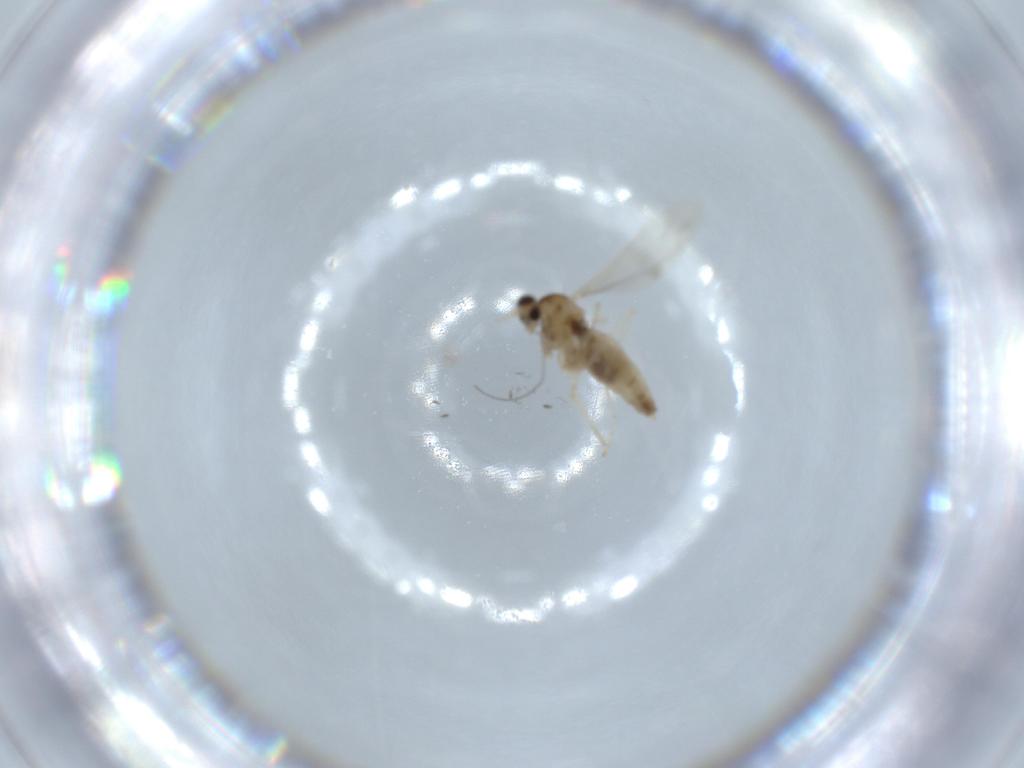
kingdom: Animalia
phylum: Arthropoda
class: Insecta
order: Diptera
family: Cecidomyiidae
